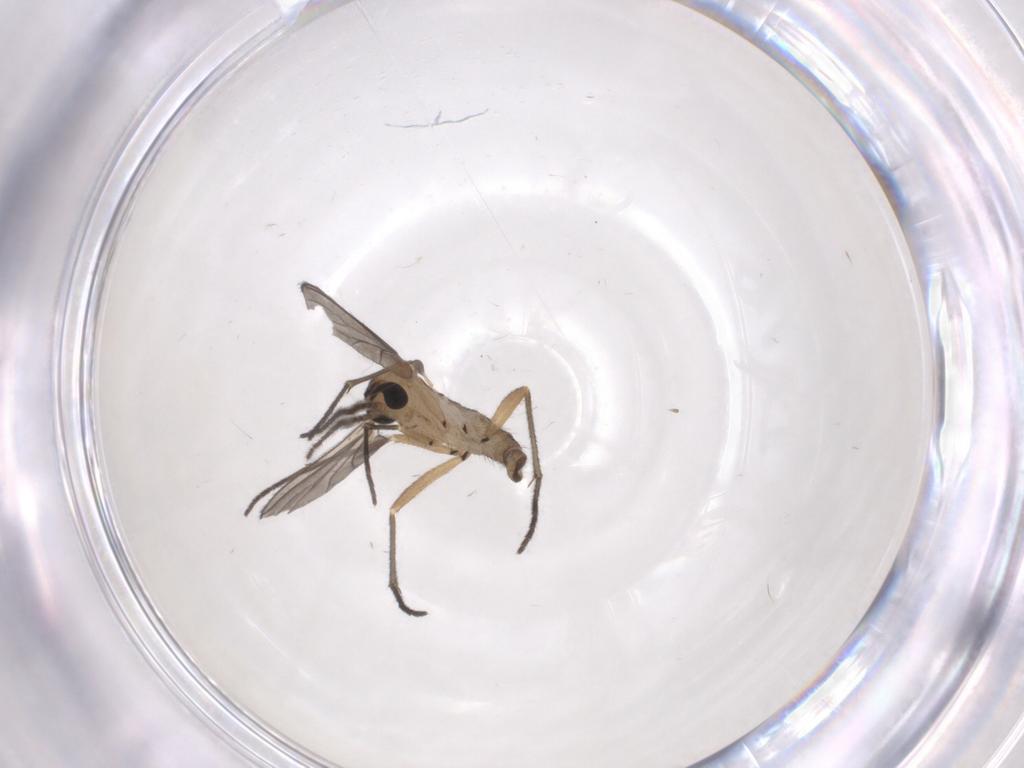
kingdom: Animalia
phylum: Arthropoda
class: Insecta
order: Diptera
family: Sciaridae
